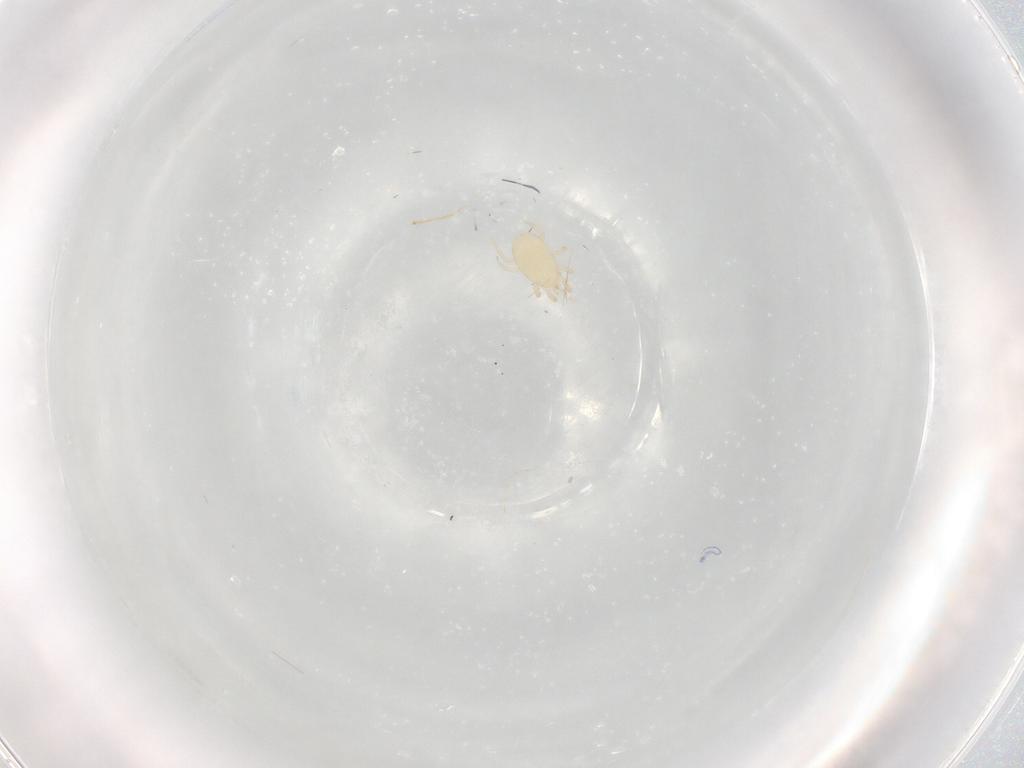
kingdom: Animalia
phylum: Arthropoda
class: Arachnida
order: Mesostigmata
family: Melicharidae
